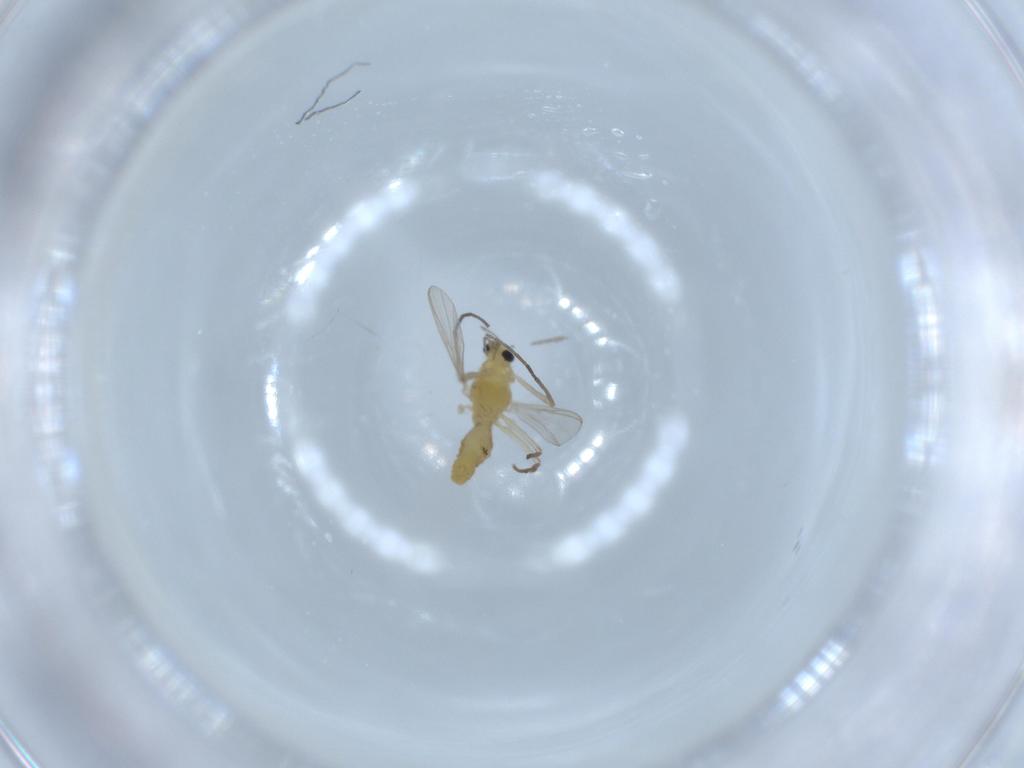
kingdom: Animalia
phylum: Arthropoda
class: Insecta
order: Diptera
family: Chironomidae
